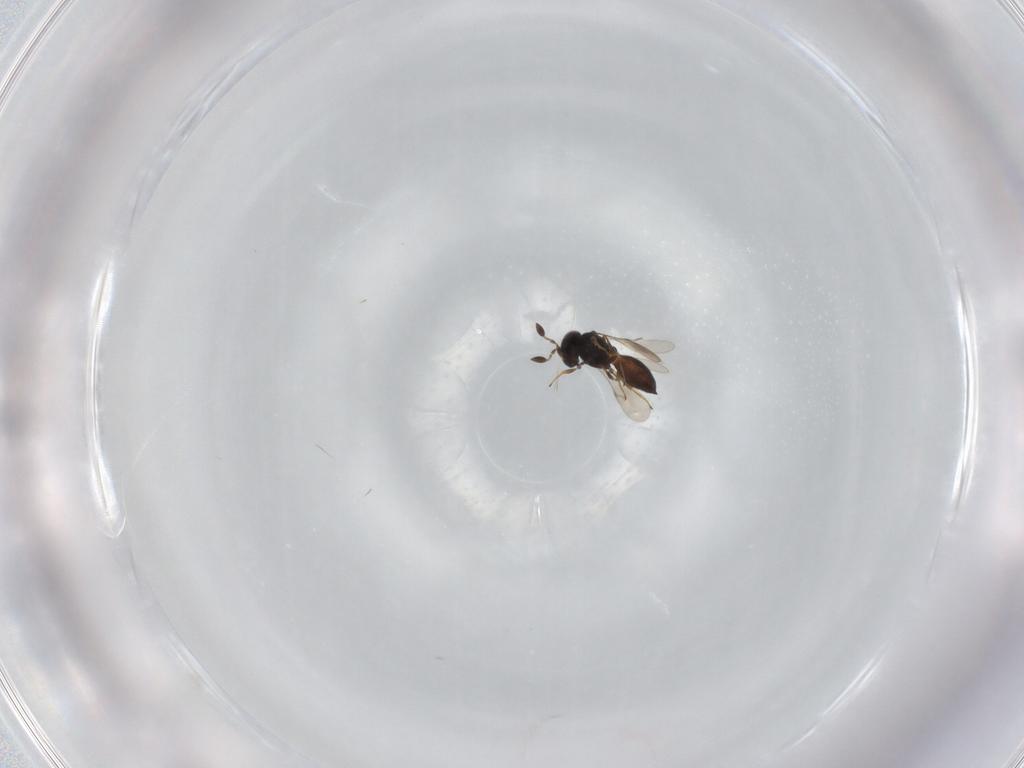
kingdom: Animalia
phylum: Arthropoda
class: Insecta
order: Hymenoptera
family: Scelionidae
